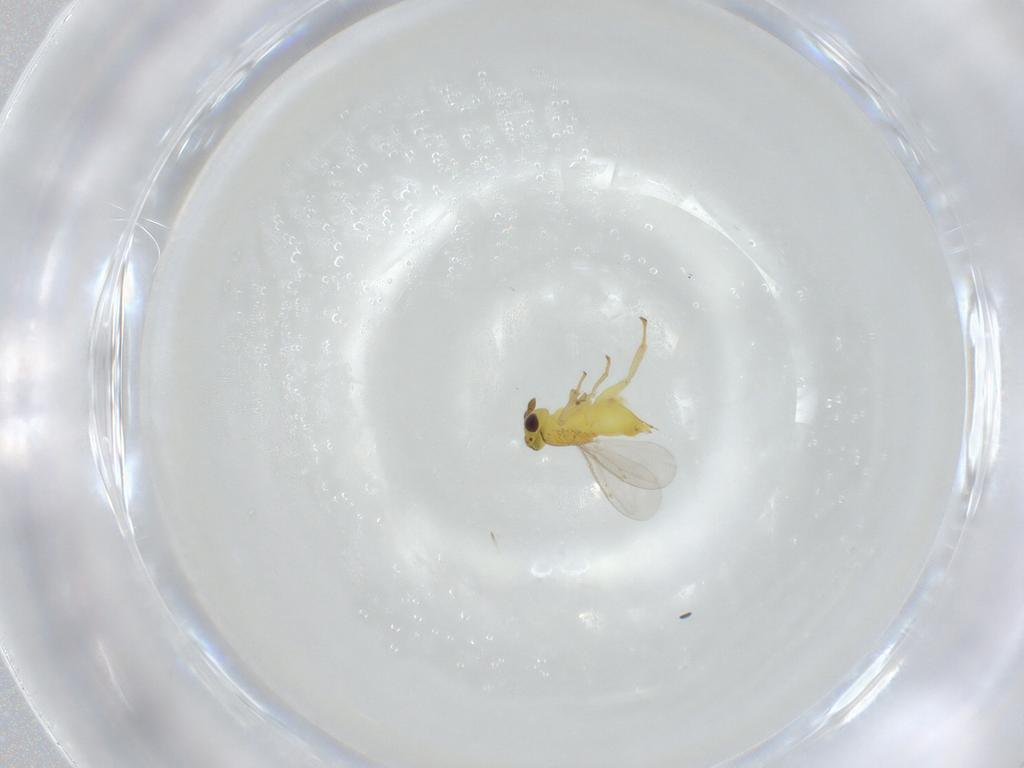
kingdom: Animalia
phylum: Arthropoda
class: Insecta
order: Hymenoptera
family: Aphelinidae
